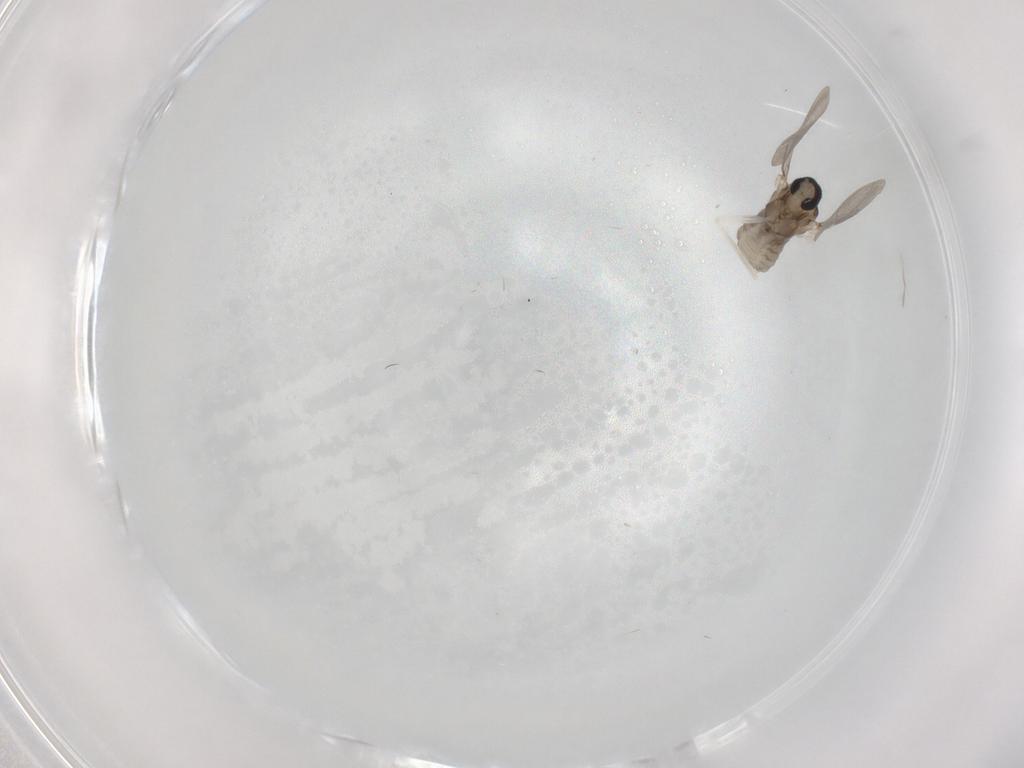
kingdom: Animalia
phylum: Arthropoda
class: Insecta
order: Diptera
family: Cecidomyiidae
